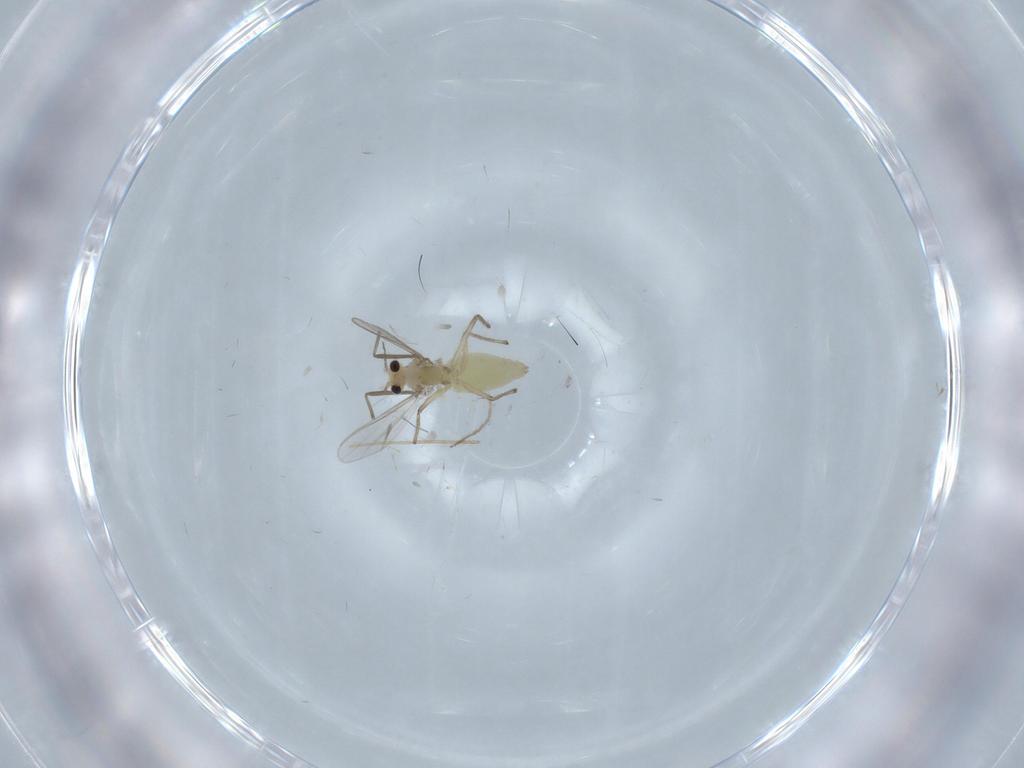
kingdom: Animalia
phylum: Arthropoda
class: Insecta
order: Diptera
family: Chironomidae
